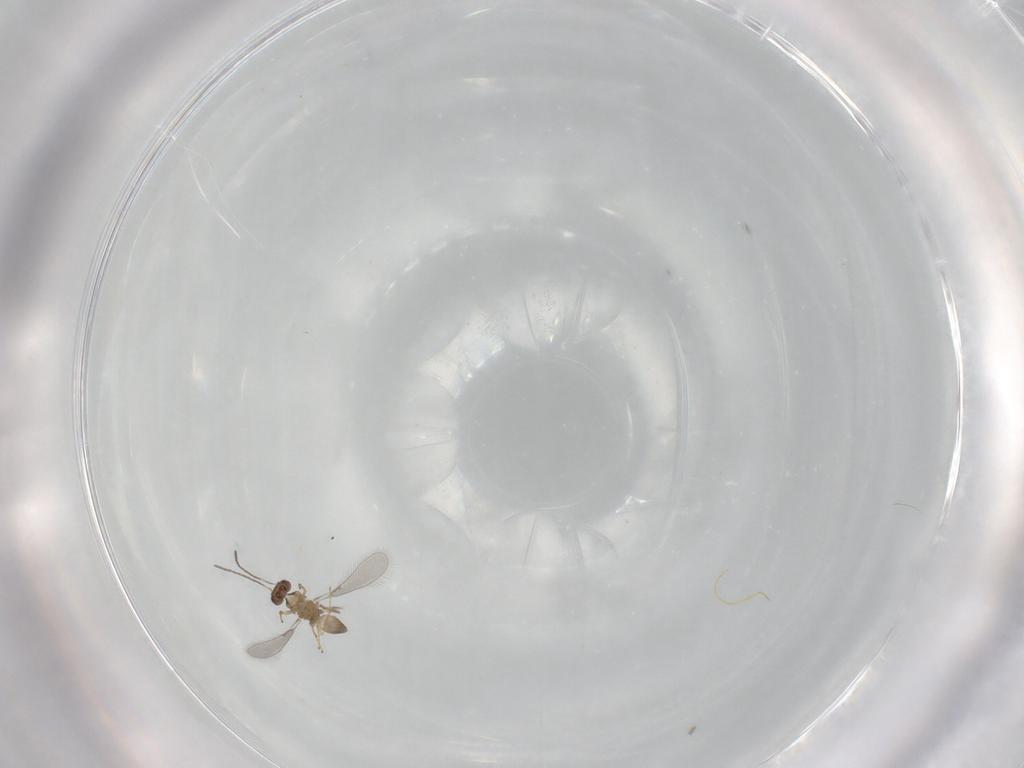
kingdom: Animalia
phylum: Arthropoda
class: Insecta
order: Hymenoptera
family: Mymaridae
